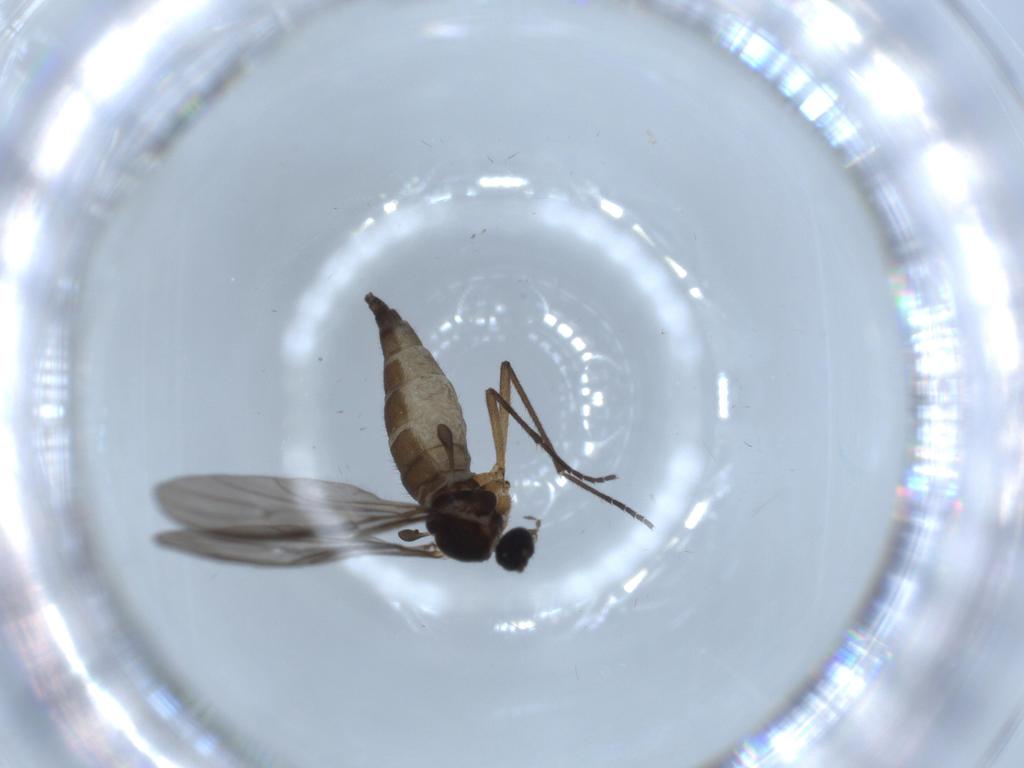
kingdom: Animalia
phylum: Arthropoda
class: Insecta
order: Diptera
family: Sciaridae
